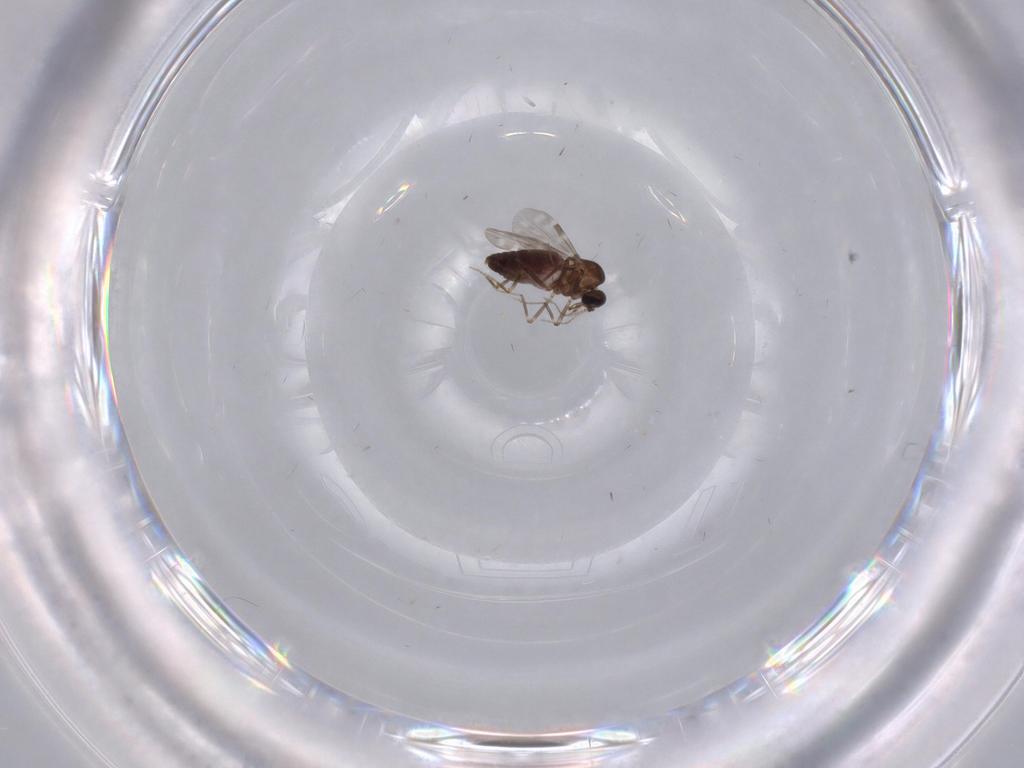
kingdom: Animalia
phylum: Arthropoda
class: Insecta
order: Diptera
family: Ceratopogonidae
